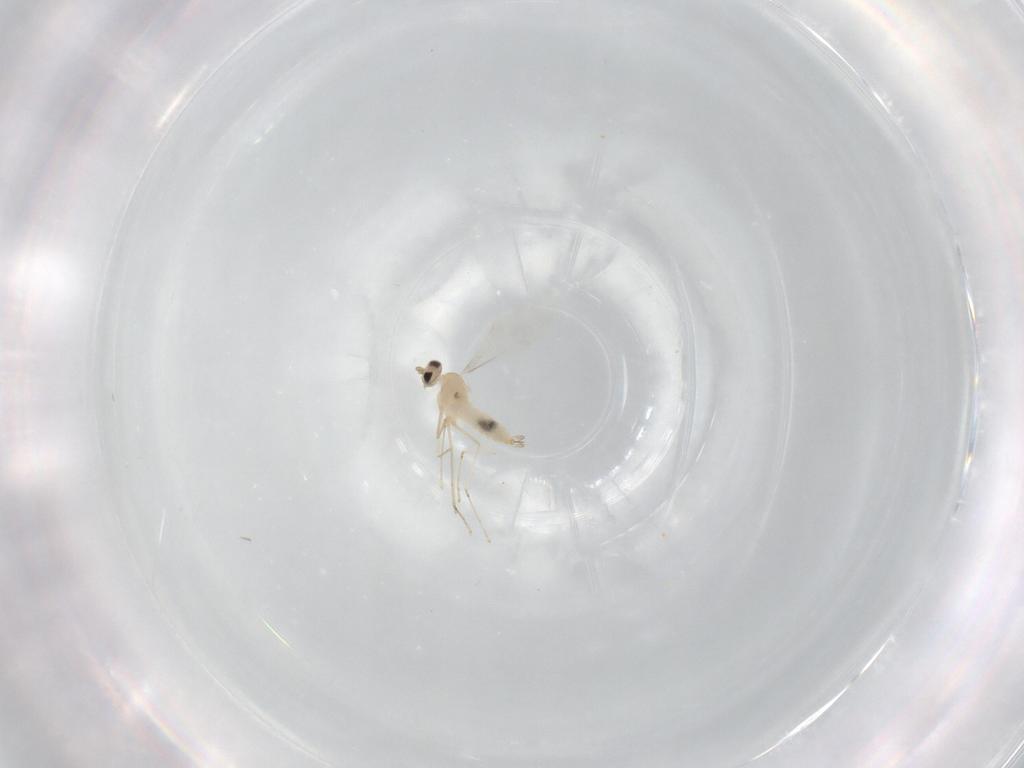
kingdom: Animalia
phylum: Arthropoda
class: Insecta
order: Diptera
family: Cecidomyiidae
